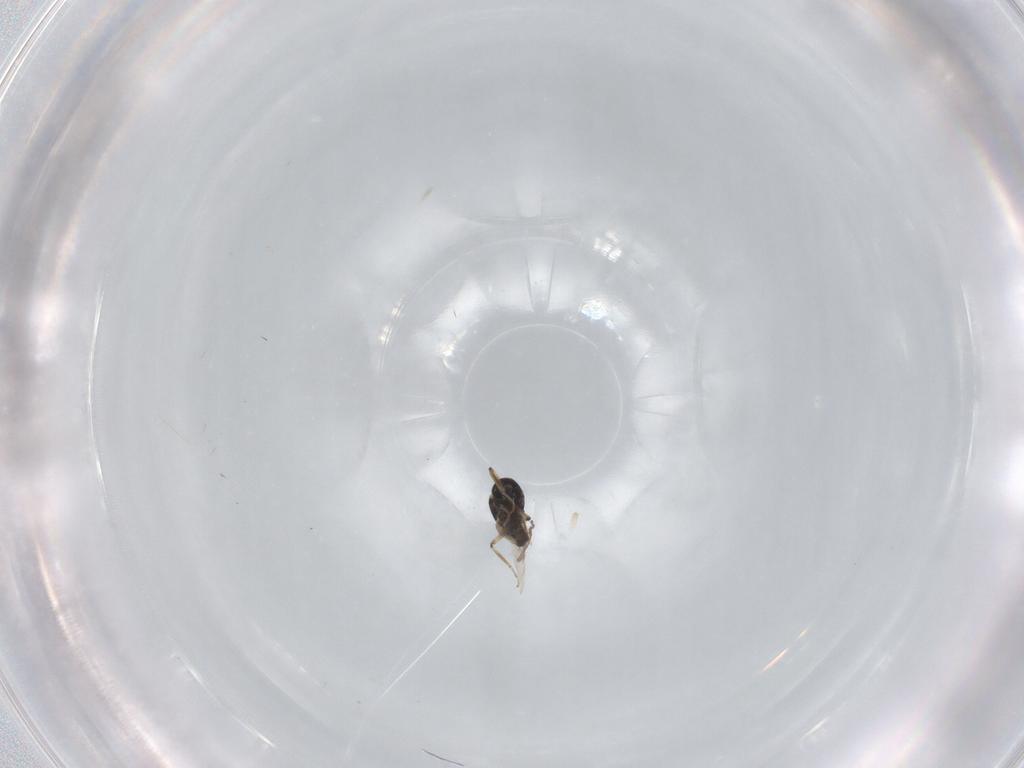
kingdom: Animalia
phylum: Arthropoda
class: Insecta
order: Diptera
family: Ceratopogonidae
